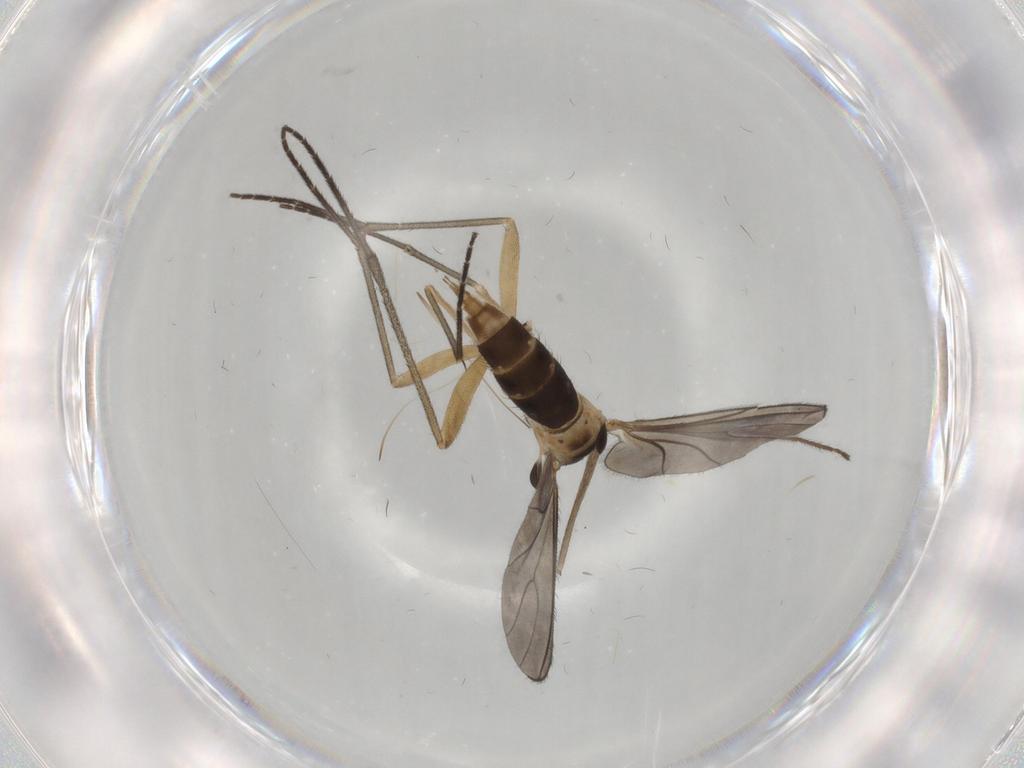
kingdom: Animalia
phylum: Arthropoda
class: Insecta
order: Diptera
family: Sciaridae
